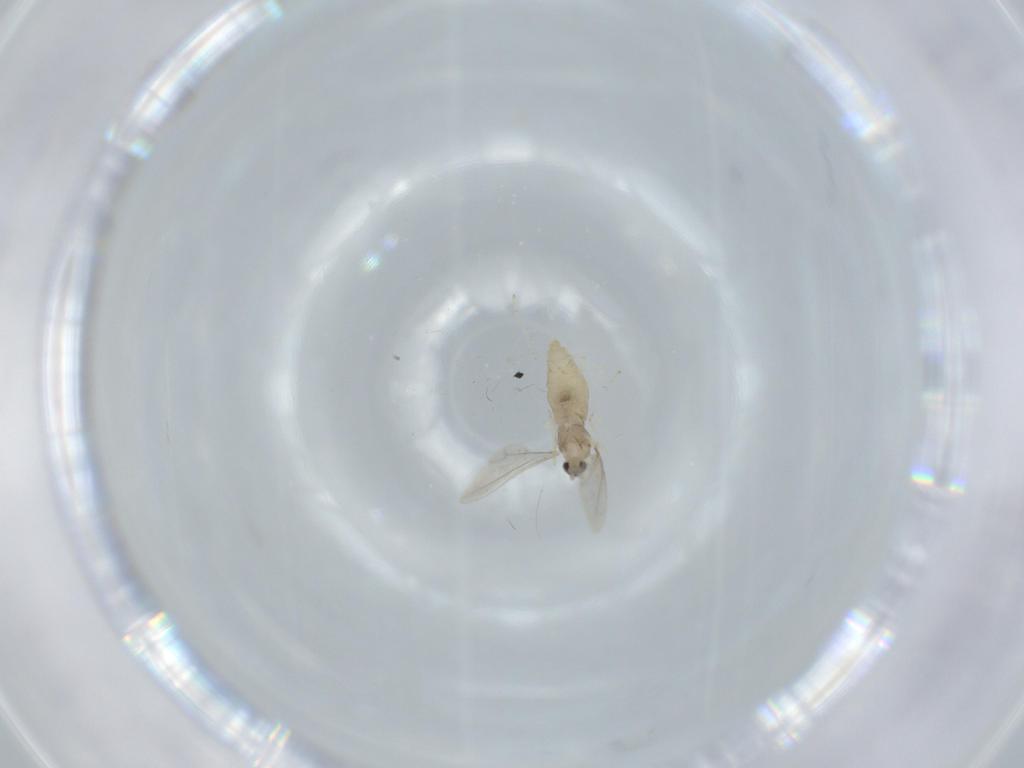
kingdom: Animalia
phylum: Arthropoda
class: Insecta
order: Diptera
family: Cecidomyiidae
